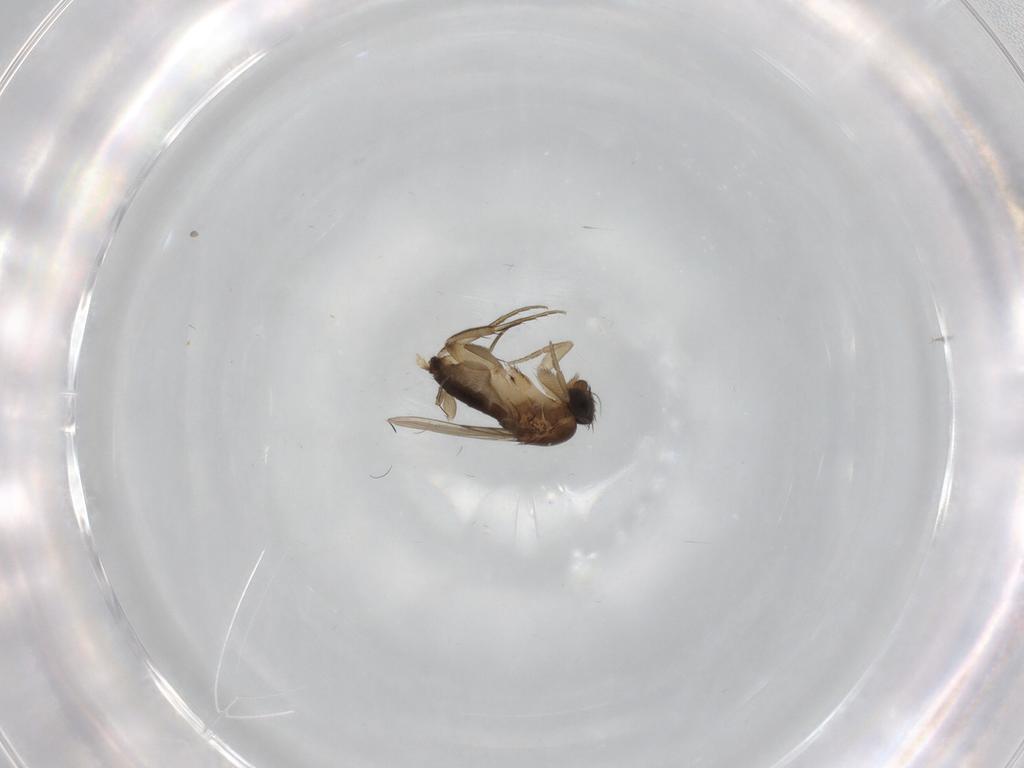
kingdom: Animalia
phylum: Arthropoda
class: Insecta
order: Diptera
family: Phoridae
